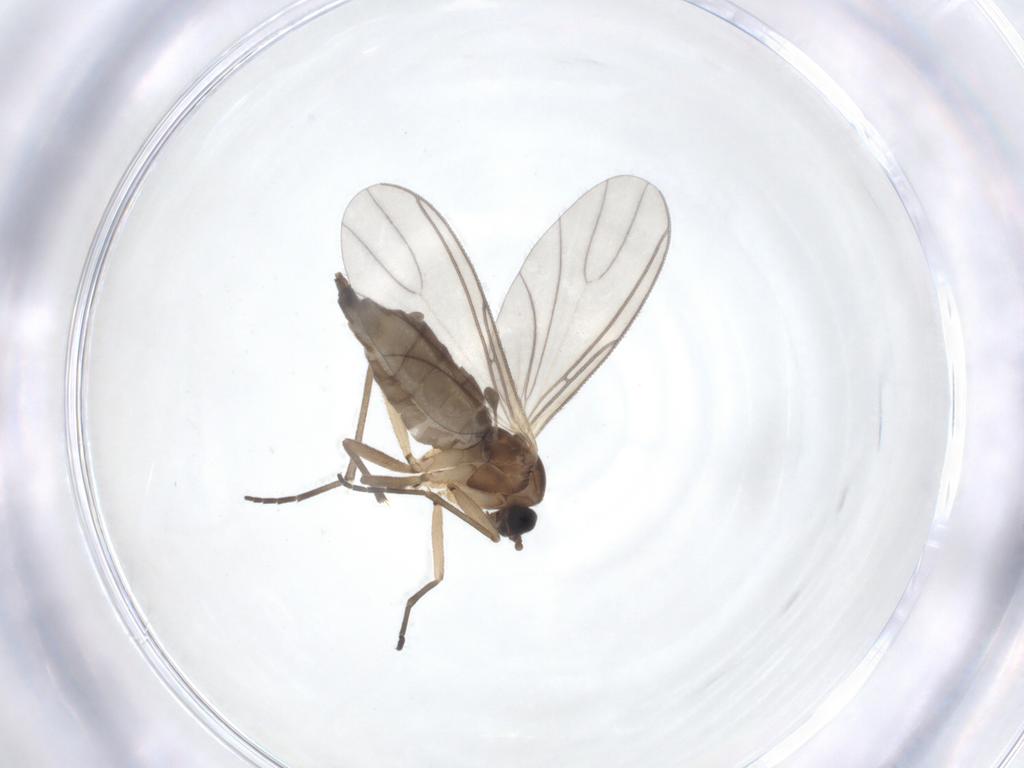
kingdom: Animalia
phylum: Arthropoda
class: Insecta
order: Diptera
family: Sciaridae
